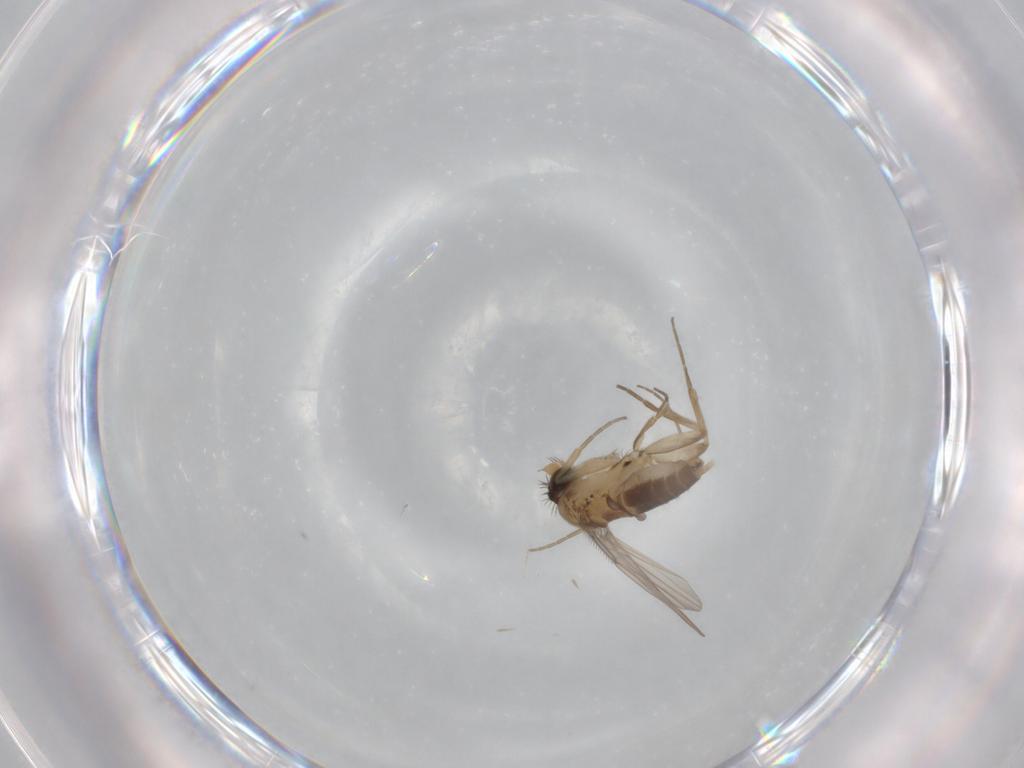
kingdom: Animalia
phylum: Arthropoda
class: Insecta
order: Diptera
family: Phoridae
